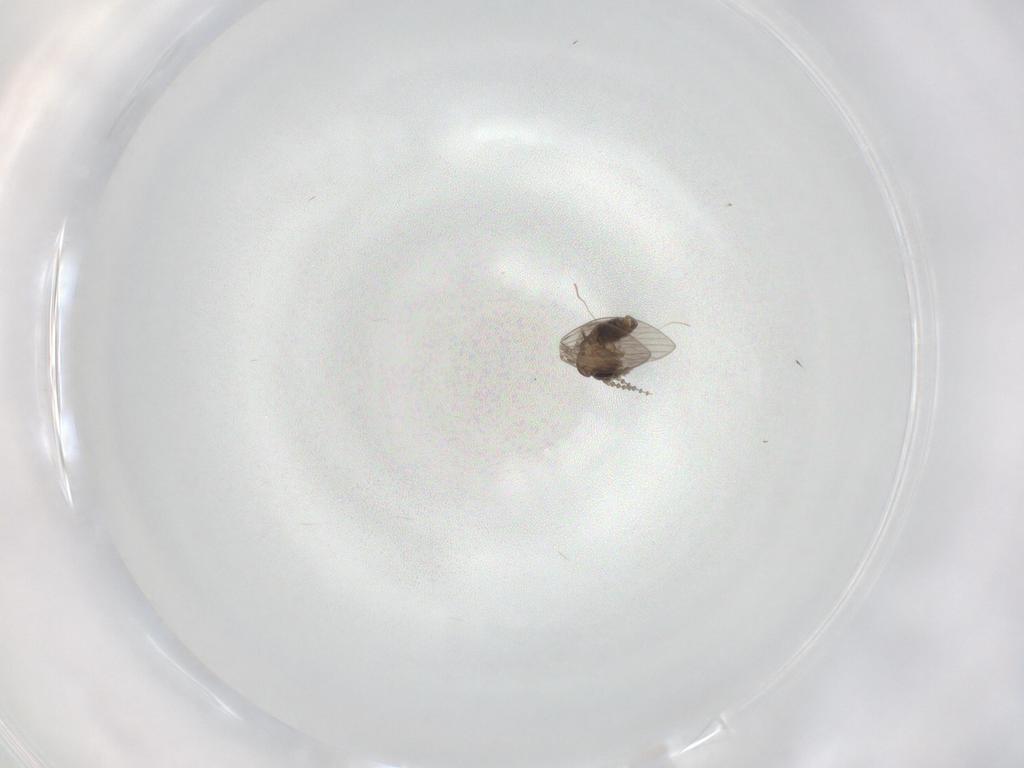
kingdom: Animalia
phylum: Arthropoda
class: Insecta
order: Diptera
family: Psychodidae
